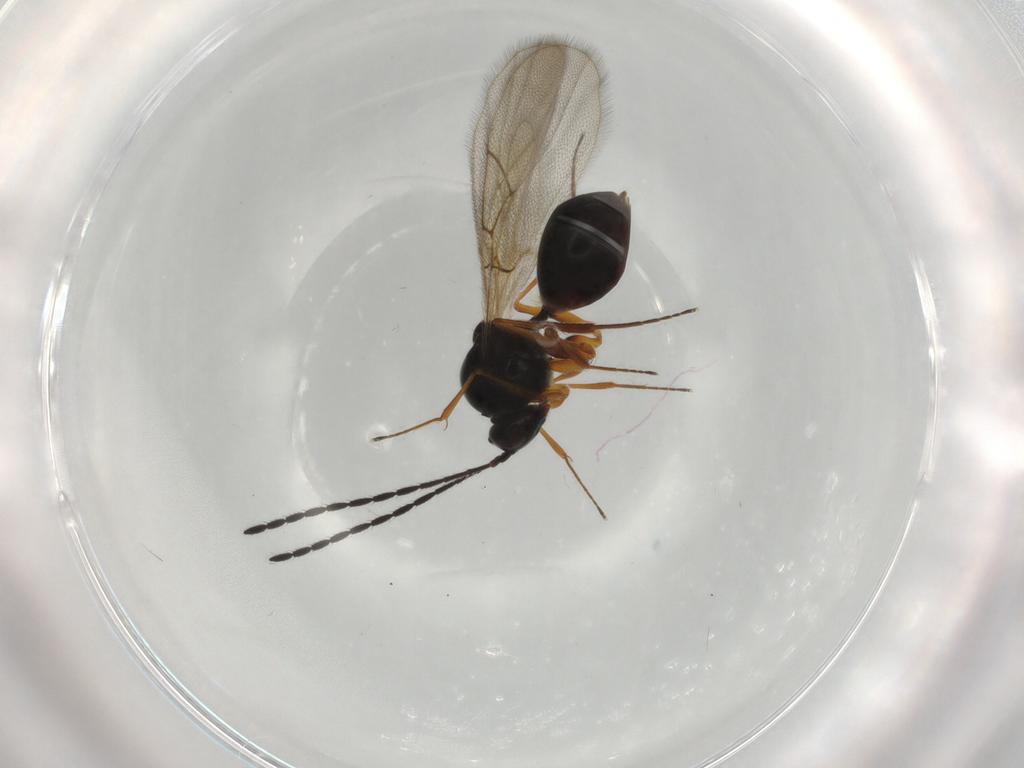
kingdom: Animalia
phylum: Arthropoda
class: Insecta
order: Hymenoptera
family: Figitidae
